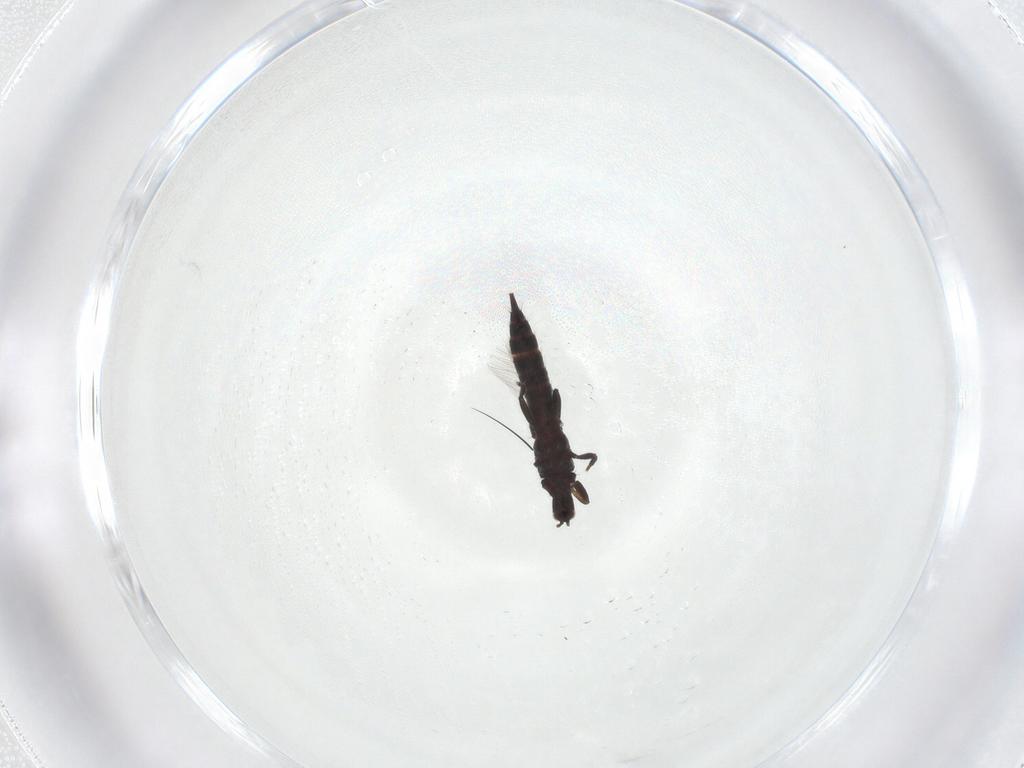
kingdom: Animalia
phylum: Arthropoda
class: Insecta
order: Thysanoptera
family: Phlaeothripidae
